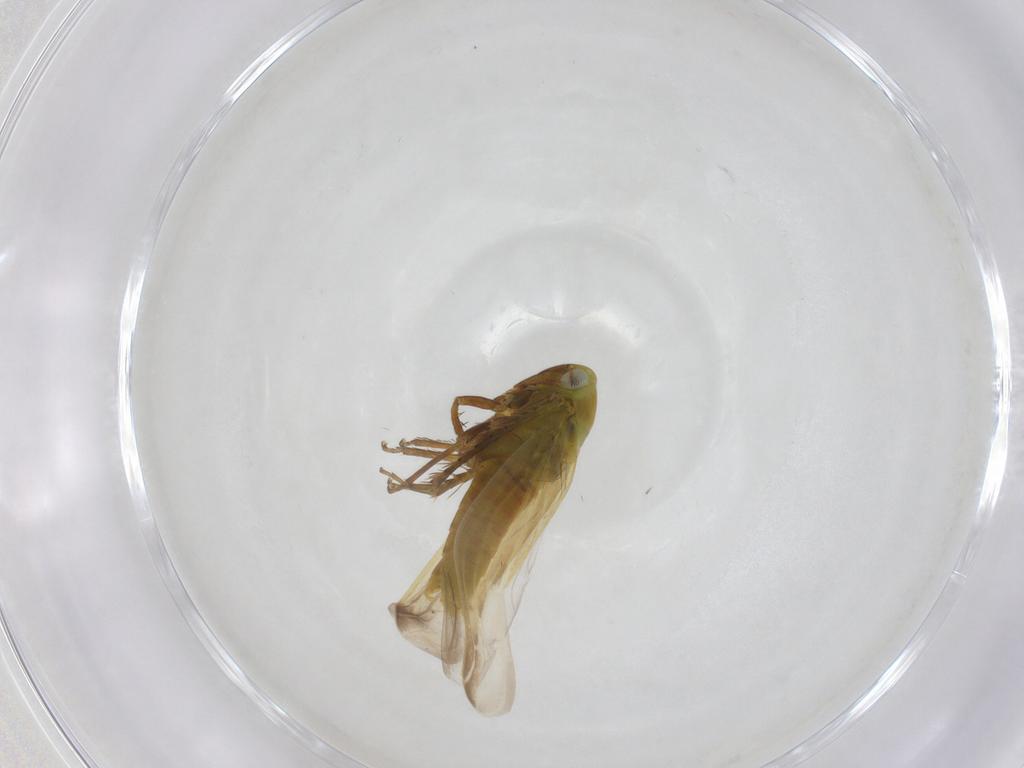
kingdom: Animalia
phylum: Arthropoda
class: Insecta
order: Hemiptera
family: Cicadellidae
